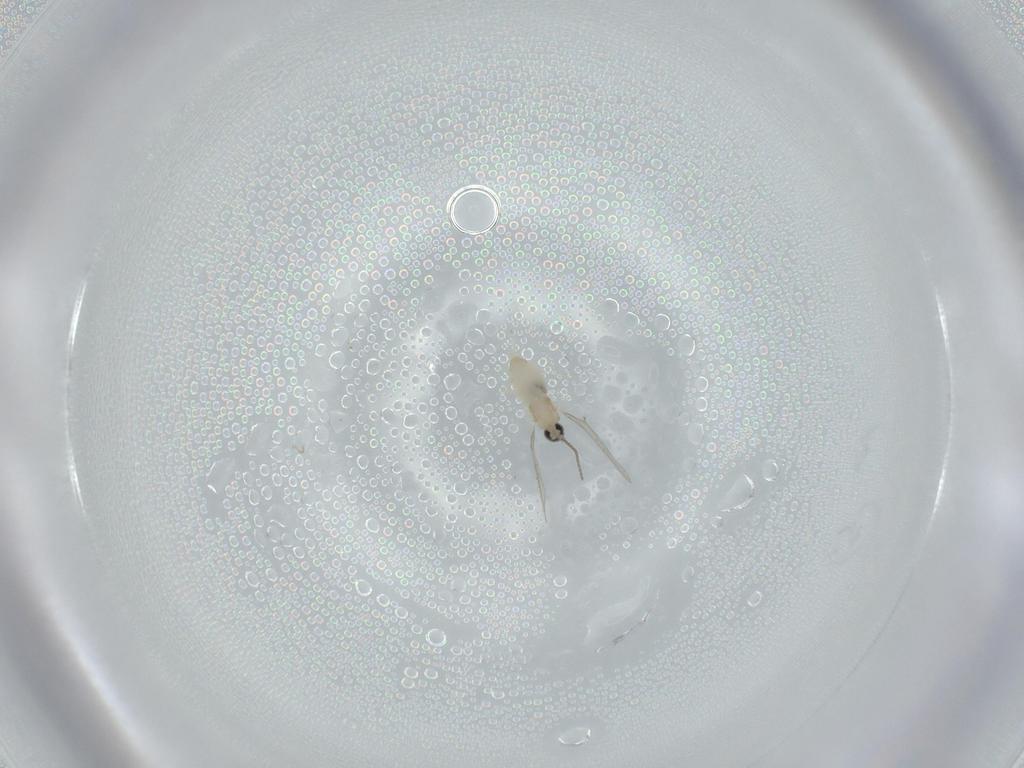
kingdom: Animalia
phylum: Arthropoda
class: Insecta
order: Diptera
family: Cecidomyiidae
